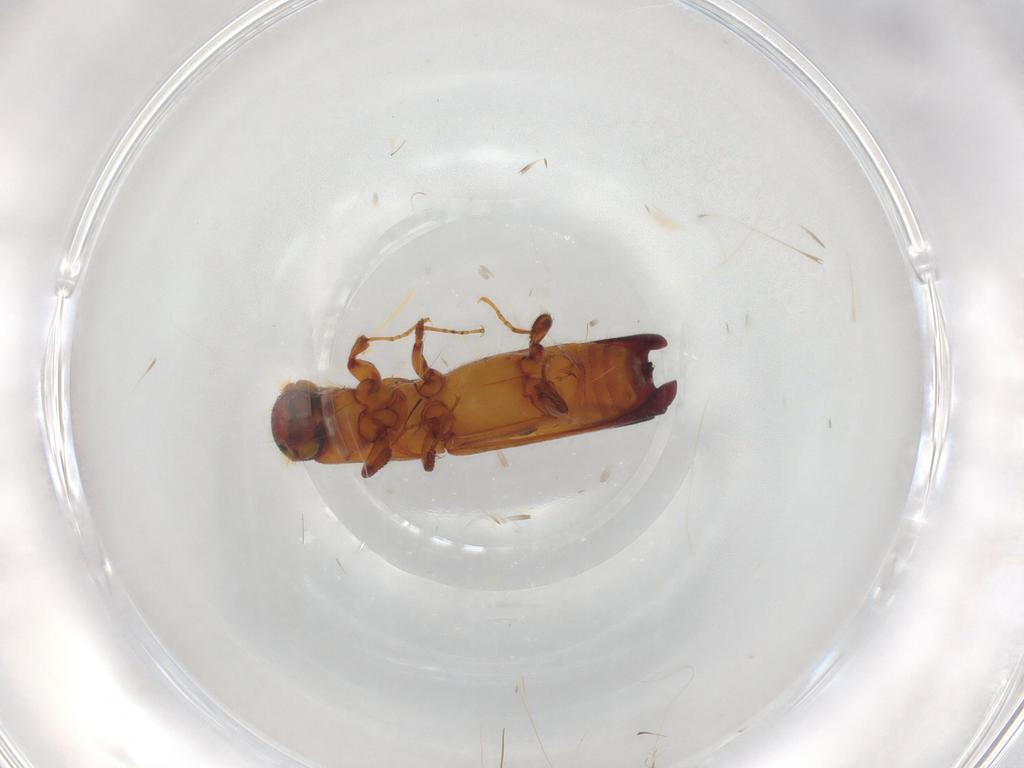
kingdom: Animalia
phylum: Arthropoda
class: Insecta
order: Coleoptera
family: Curculionidae
